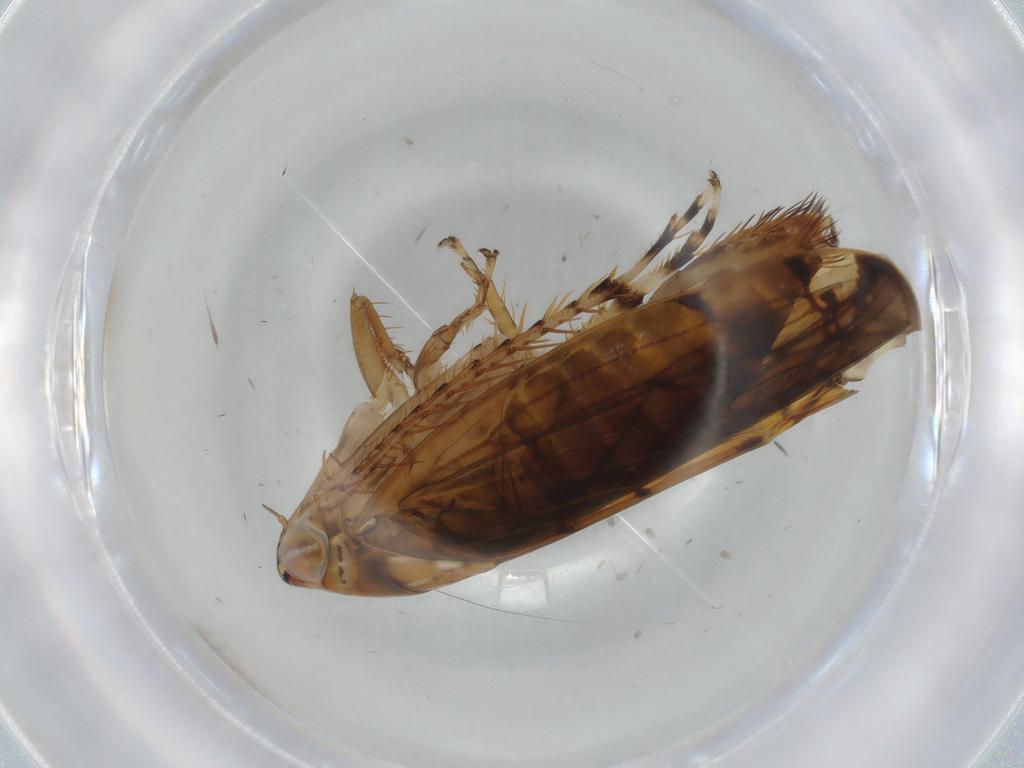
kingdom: Animalia
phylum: Arthropoda
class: Insecta
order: Hemiptera
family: Cicadellidae
